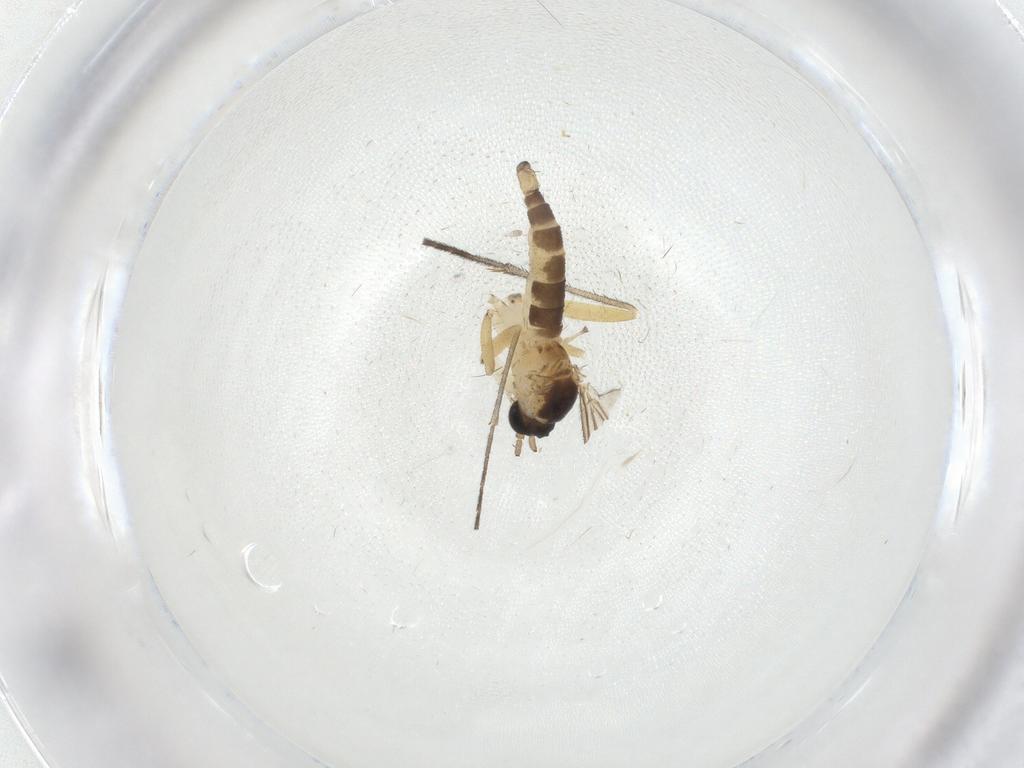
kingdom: Animalia
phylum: Arthropoda
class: Insecta
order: Diptera
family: Sciaridae
